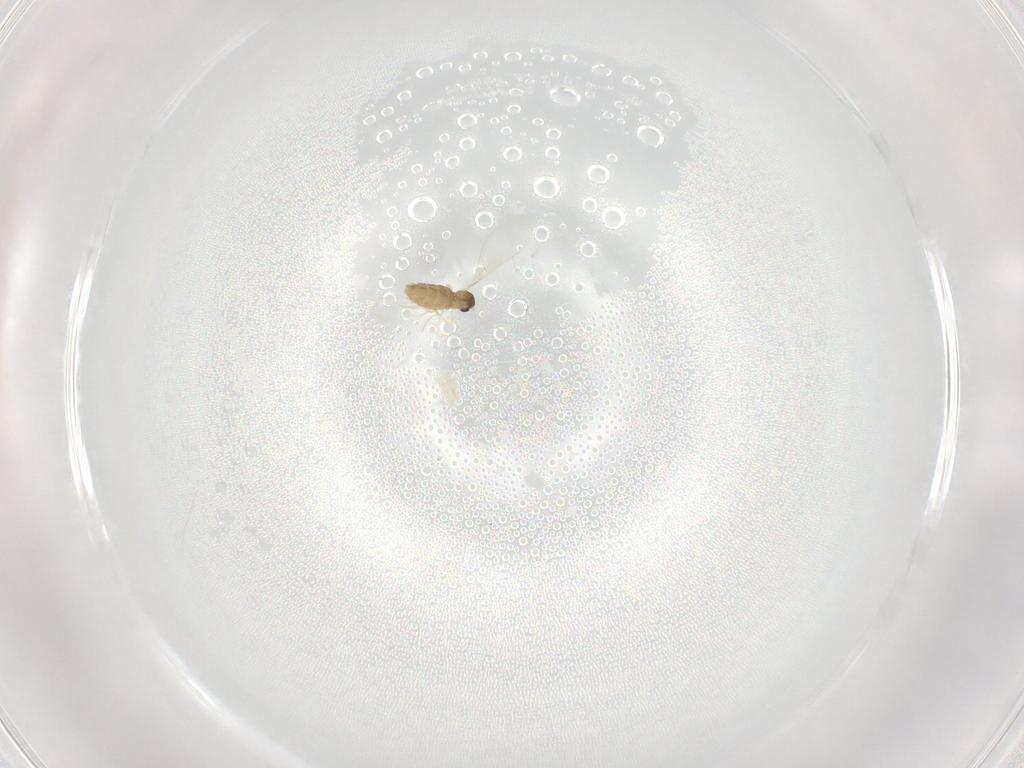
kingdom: Animalia
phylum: Arthropoda
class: Insecta
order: Diptera
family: Cecidomyiidae
